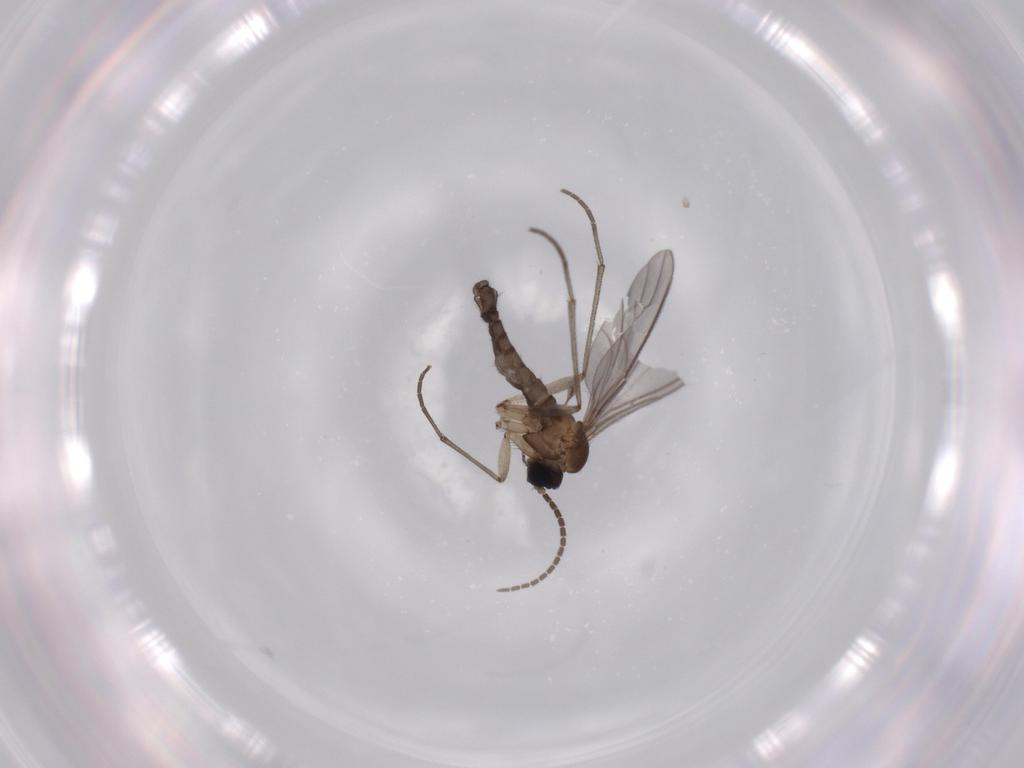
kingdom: Animalia
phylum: Arthropoda
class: Insecta
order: Diptera
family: Sciaridae
